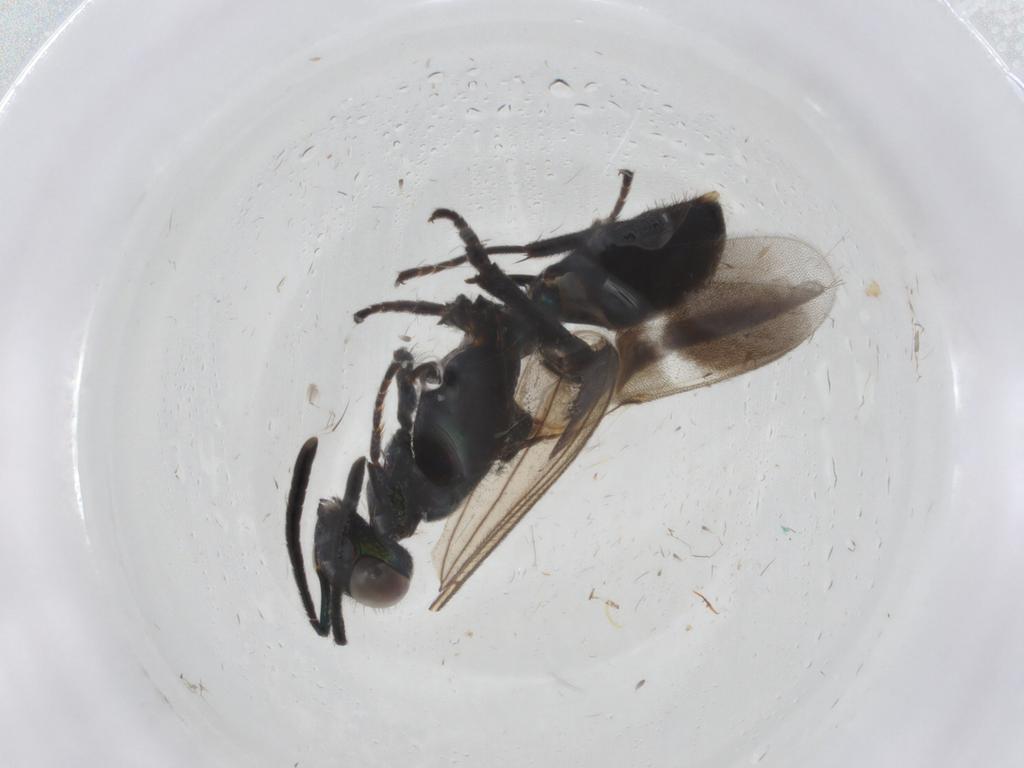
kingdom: Animalia
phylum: Arthropoda
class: Insecta
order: Hymenoptera
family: Eupelmidae
